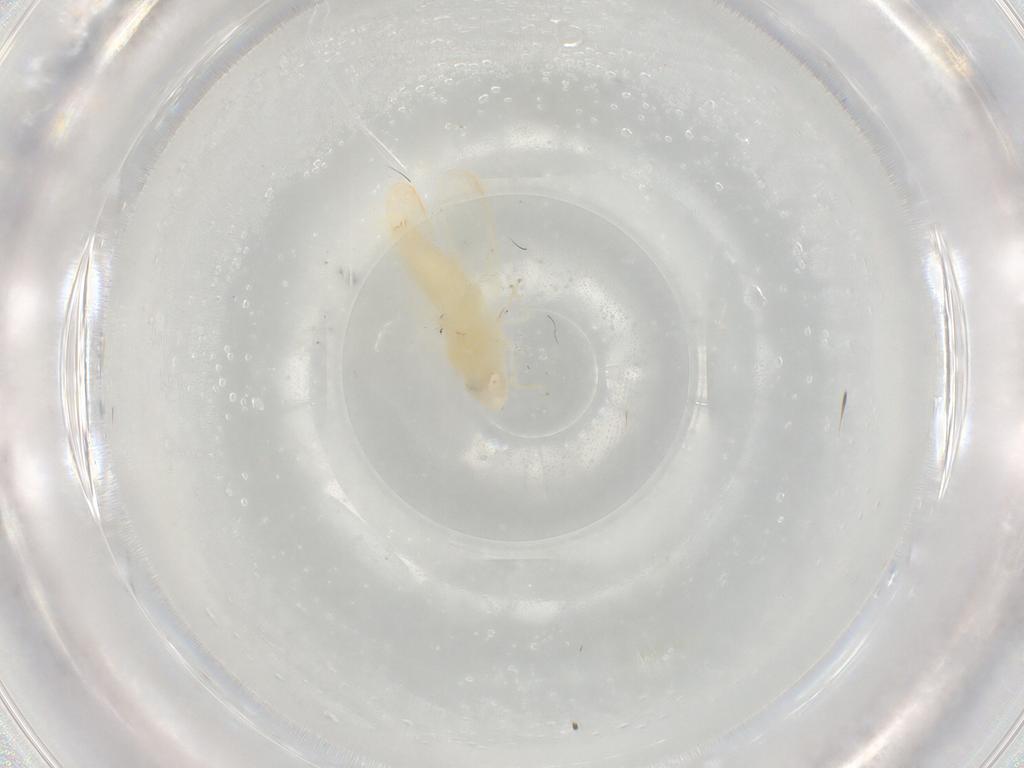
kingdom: Animalia
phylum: Arthropoda
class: Insecta
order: Hemiptera
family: Cicadellidae
